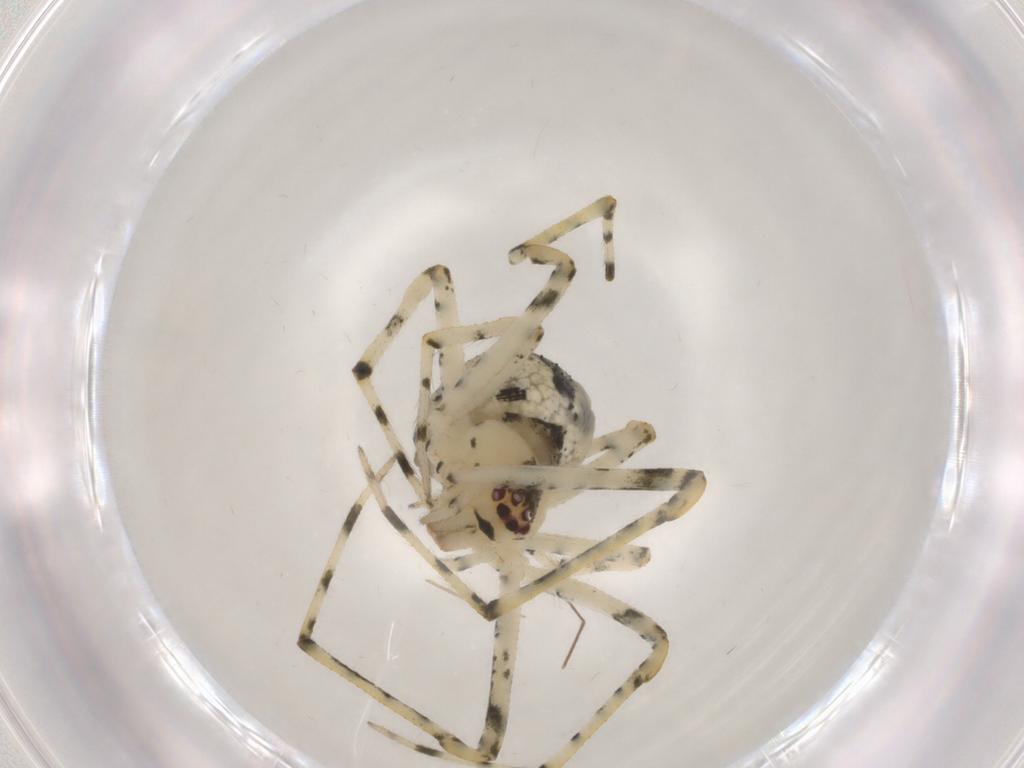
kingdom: Animalia
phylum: Arthropoda
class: Arachnida
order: Araneae
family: Theridiidae
